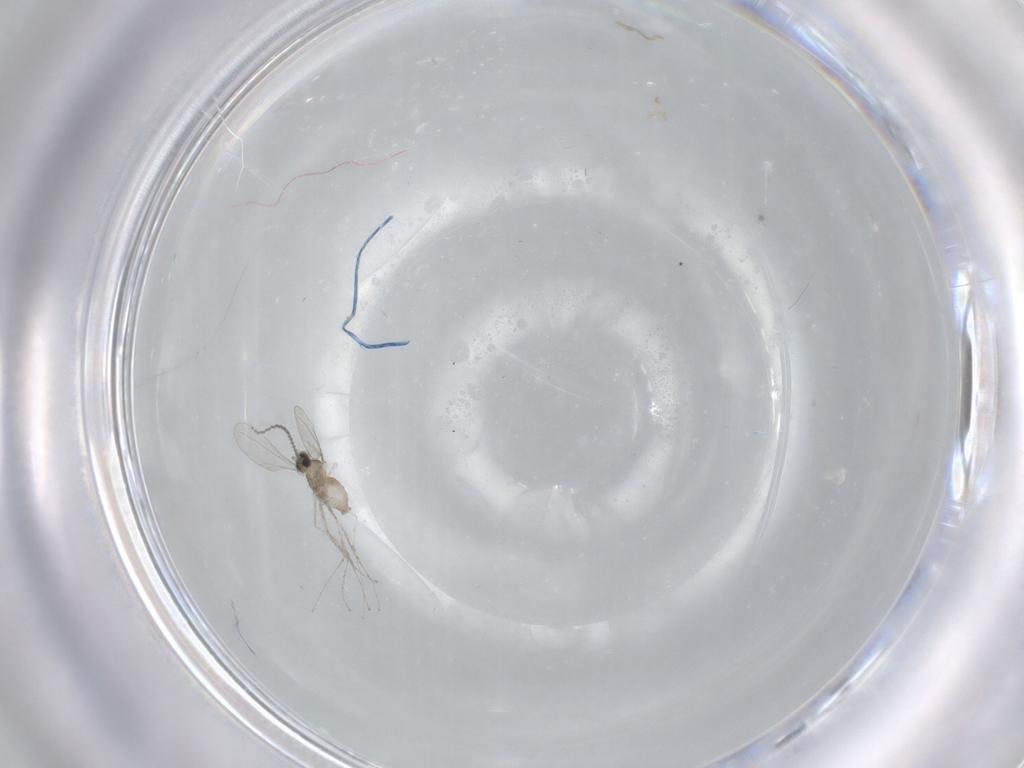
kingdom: Animalia
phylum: Arthropoda
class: Insecta
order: Diptera
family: Cecidomyiidae
